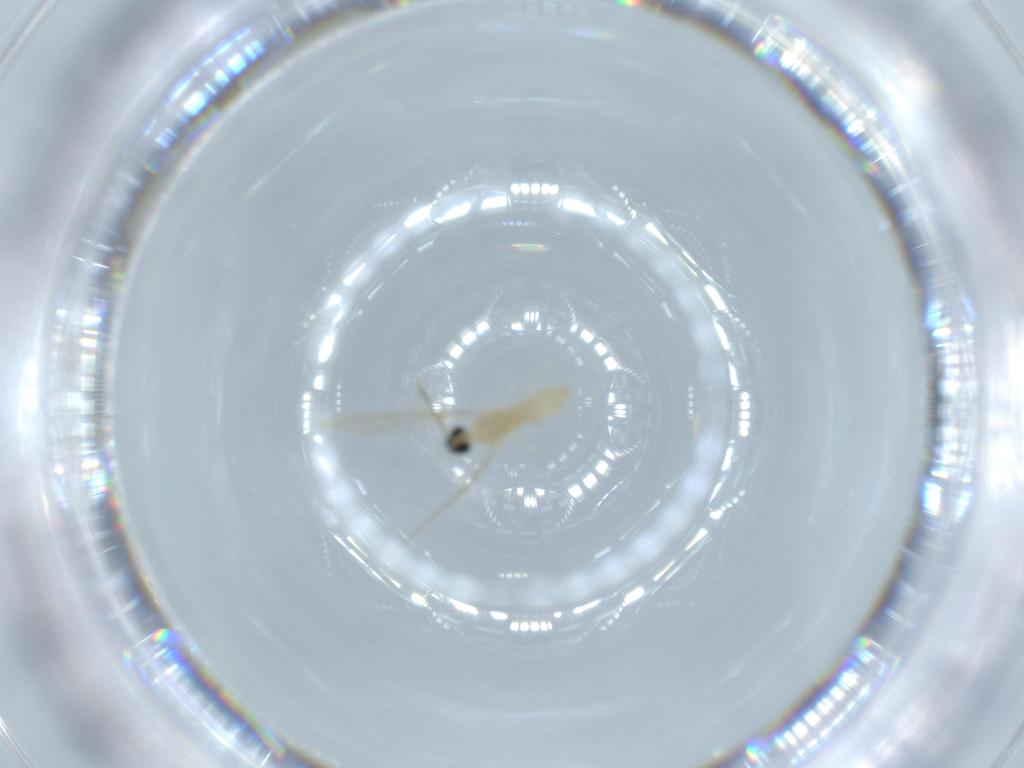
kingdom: Animalia
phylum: Arthropoda
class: Insecta
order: Diptera
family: Cecidomyiidae
